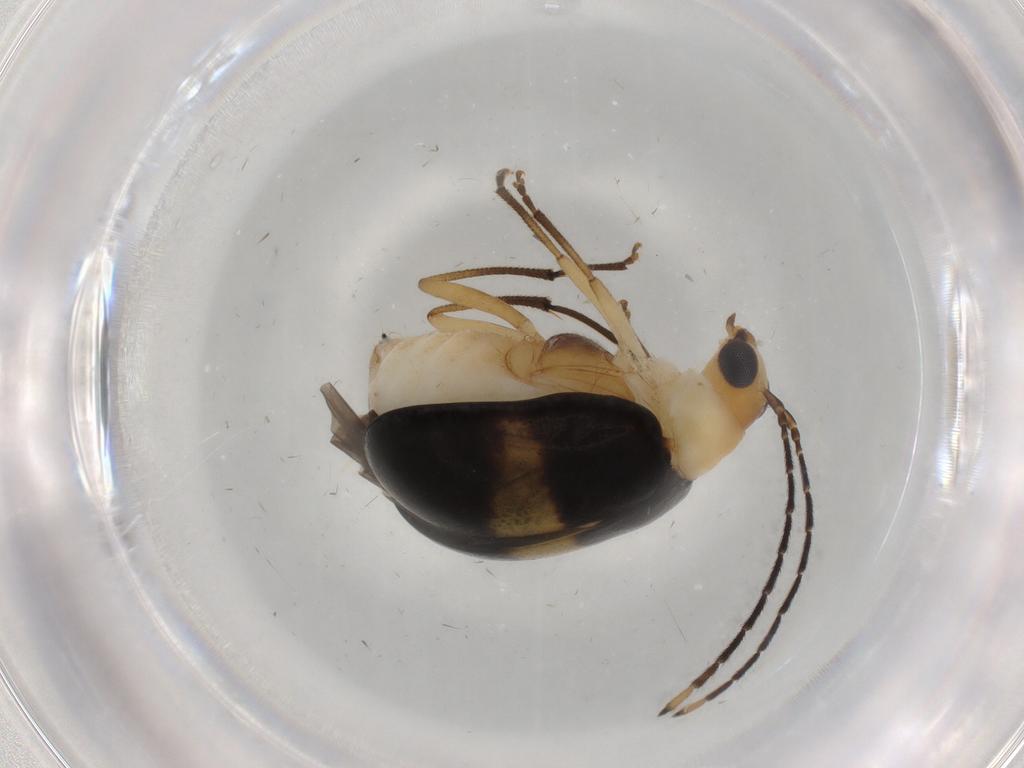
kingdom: Animalia
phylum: Arthropoda
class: Insecta
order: Coleoptera
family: Chrysomelidae
